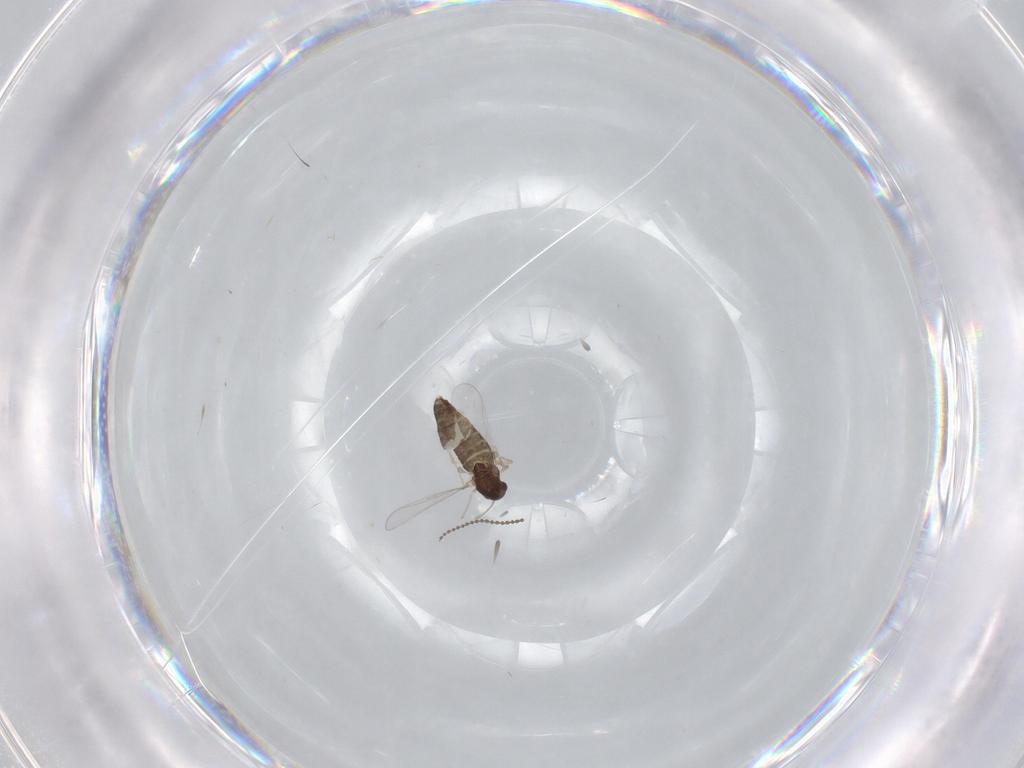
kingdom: Animalia
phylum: Arthropoda
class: Insecta
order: Diptera
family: Chironomidae
